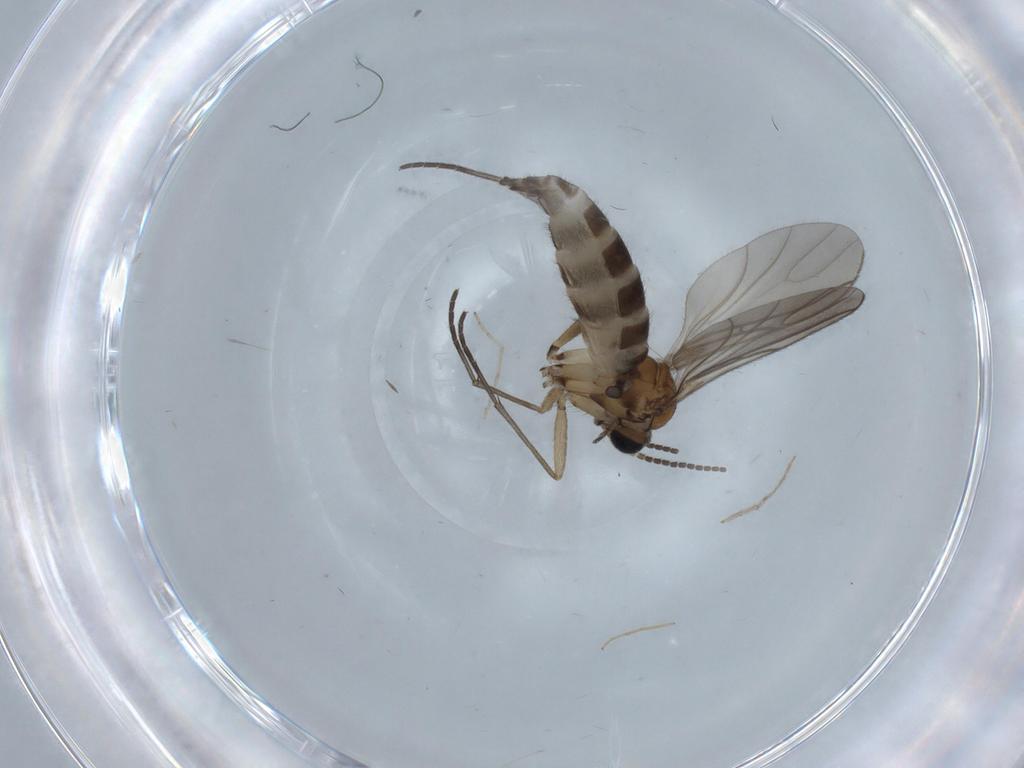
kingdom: Animalia
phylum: Arthropoda
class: Insecta
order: Diptera
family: Sciaridae
